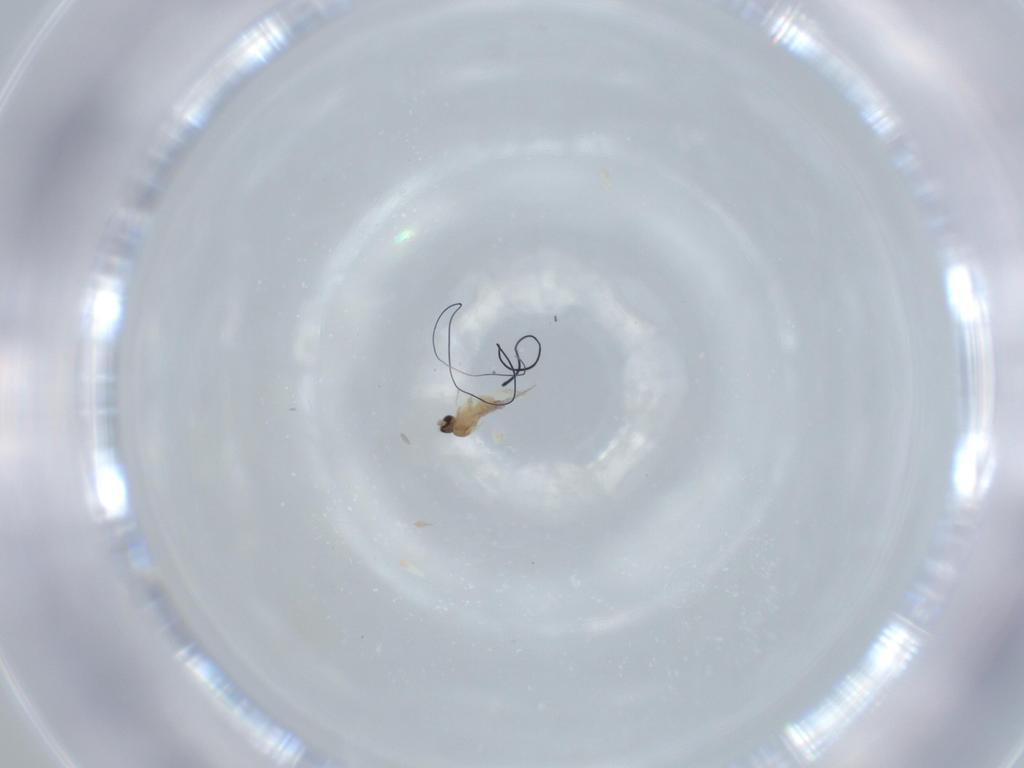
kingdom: Animalia
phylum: Arthropoda
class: Insecta
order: Diptera
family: Cecidomyiidae
